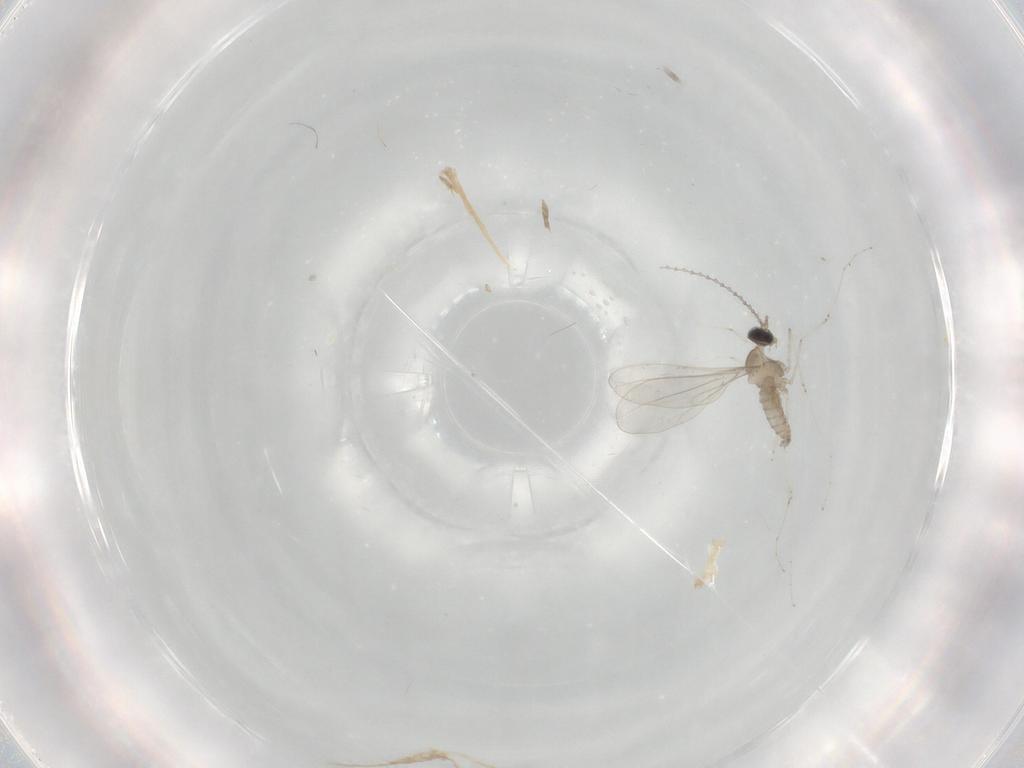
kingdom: Animalia
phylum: Arthropoda
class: Insecta
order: Diptera
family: Cecidomyiidae
